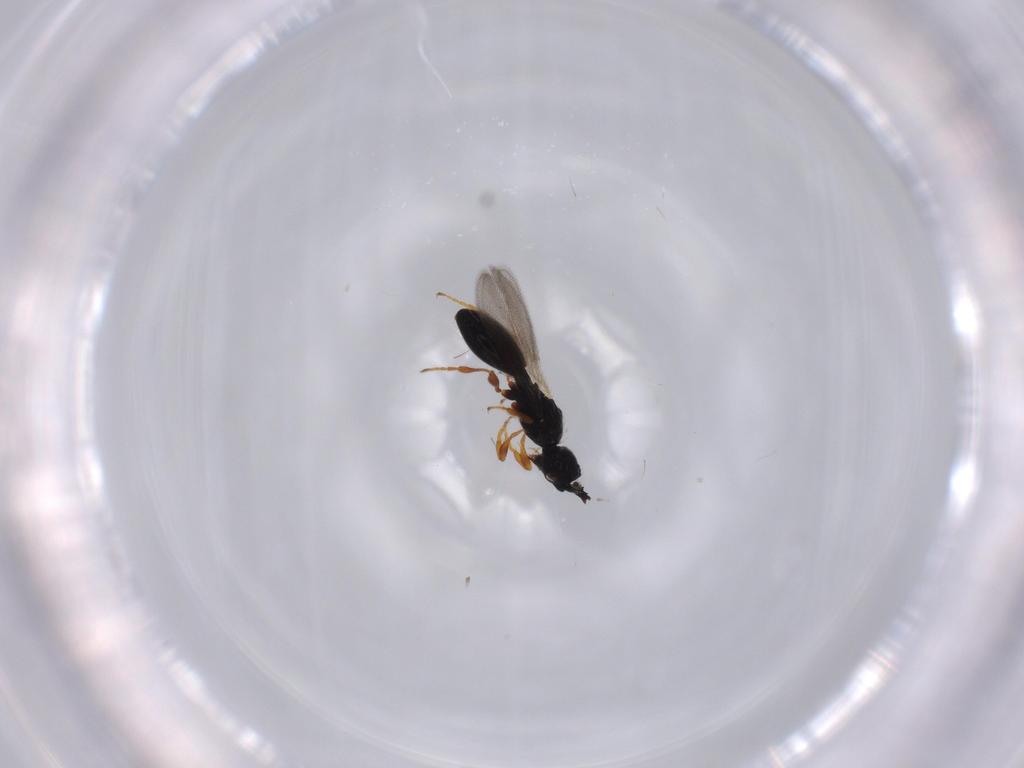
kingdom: Animalia
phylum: Arthropoda
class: Insecta
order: Hymenoptera
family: Diapriidae
